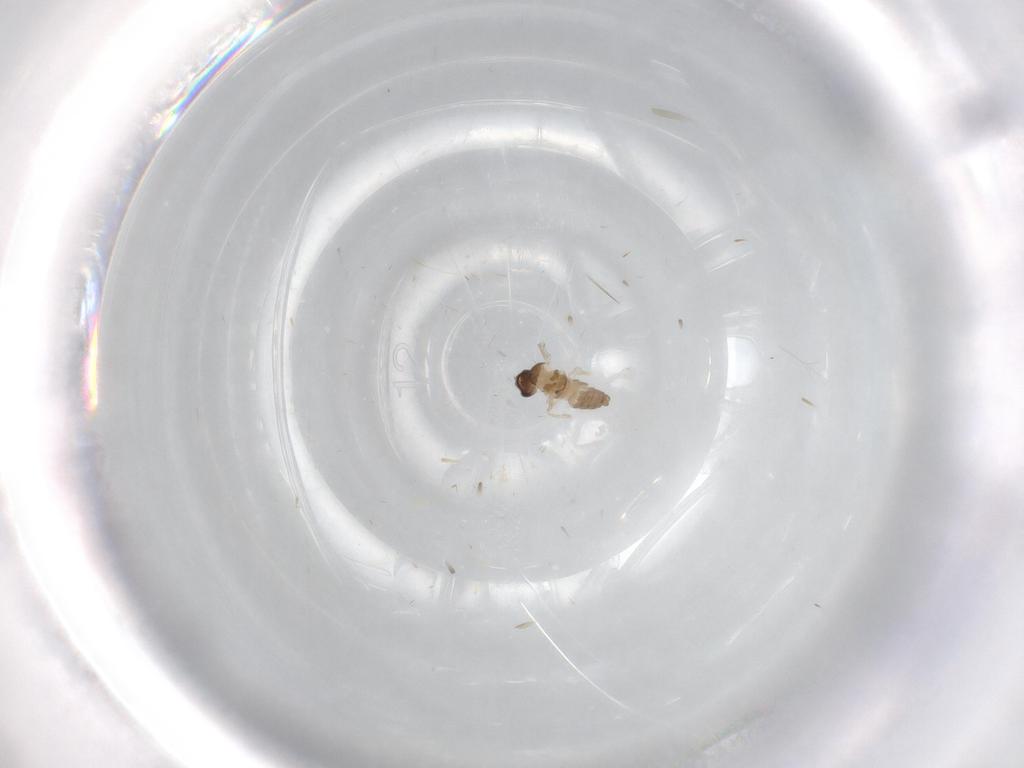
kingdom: Animalia
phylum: Arthropoda
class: Insecta
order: Diptera
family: Cecidomyiidae
